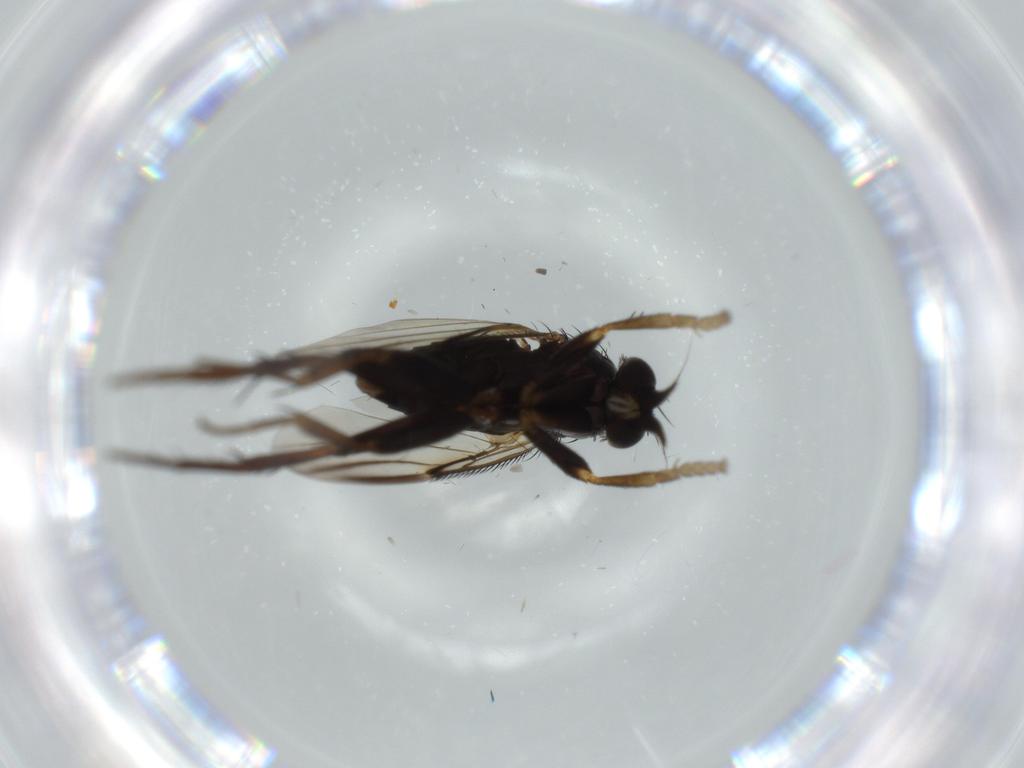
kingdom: Animalia
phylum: Arthropoda
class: Insecta
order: Diptera
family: Phoridae
